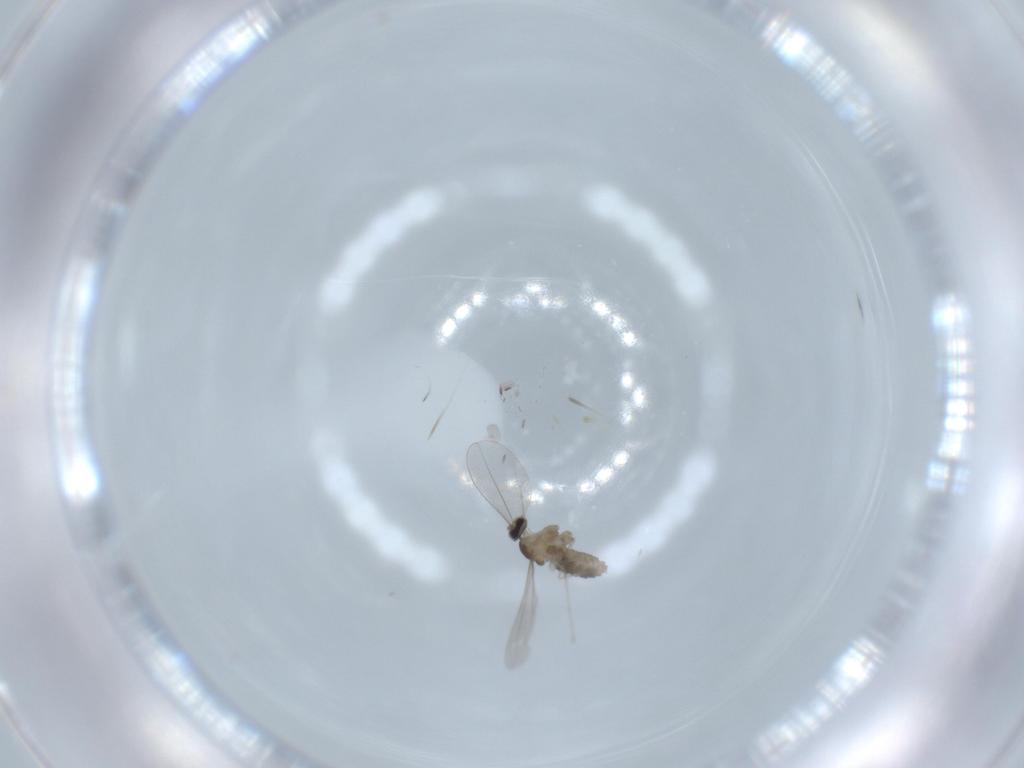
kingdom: Animalia
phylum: Arthropoda
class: Insecta
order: Diptera
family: Cecidomyiidae
